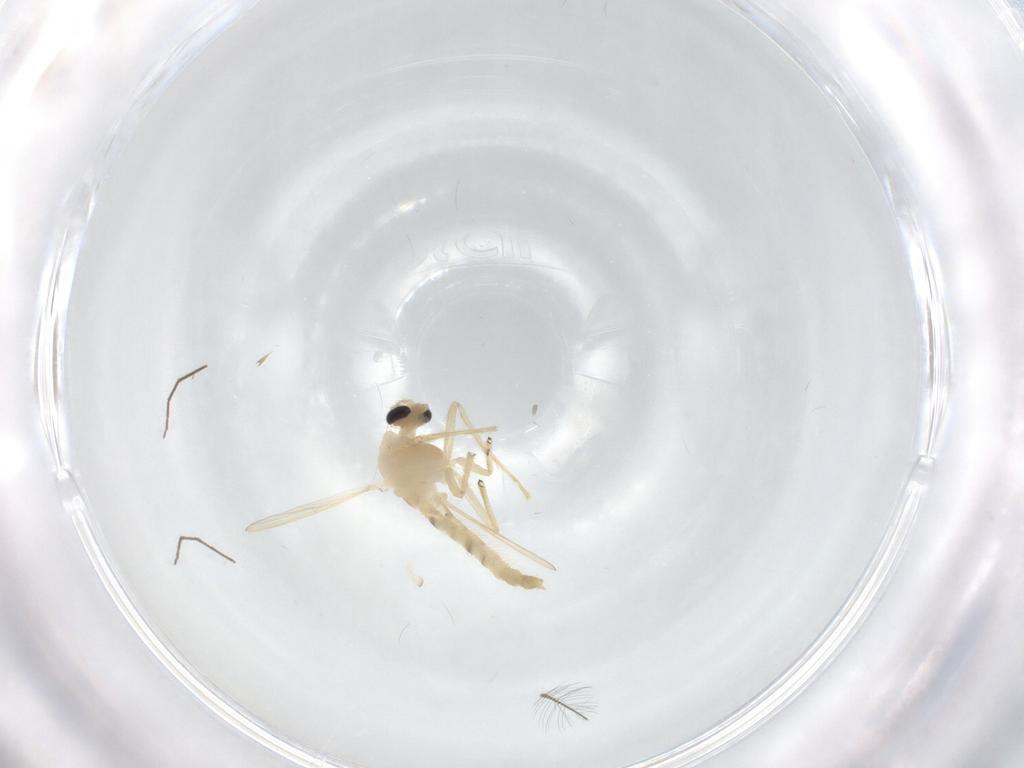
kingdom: Animalia
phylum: Arthropoda
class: Insecta
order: Diptera
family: Chironomidae
